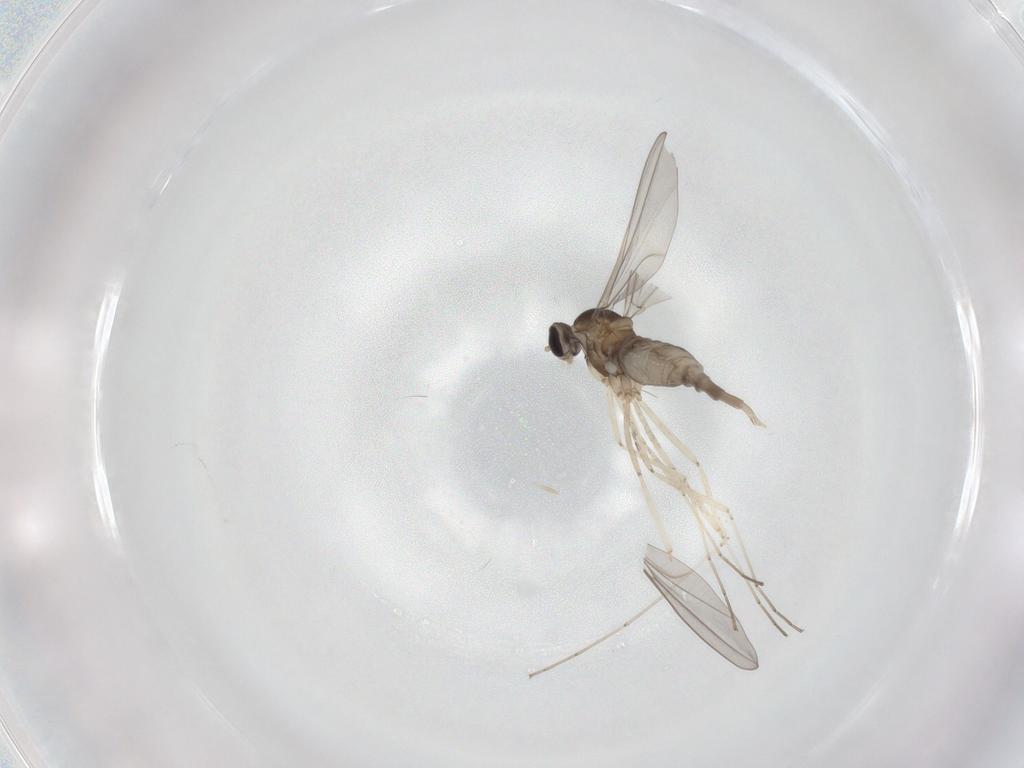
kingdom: Animalia
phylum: Arthropoda
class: Insecta
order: Diptera
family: Cecidomyiidae
